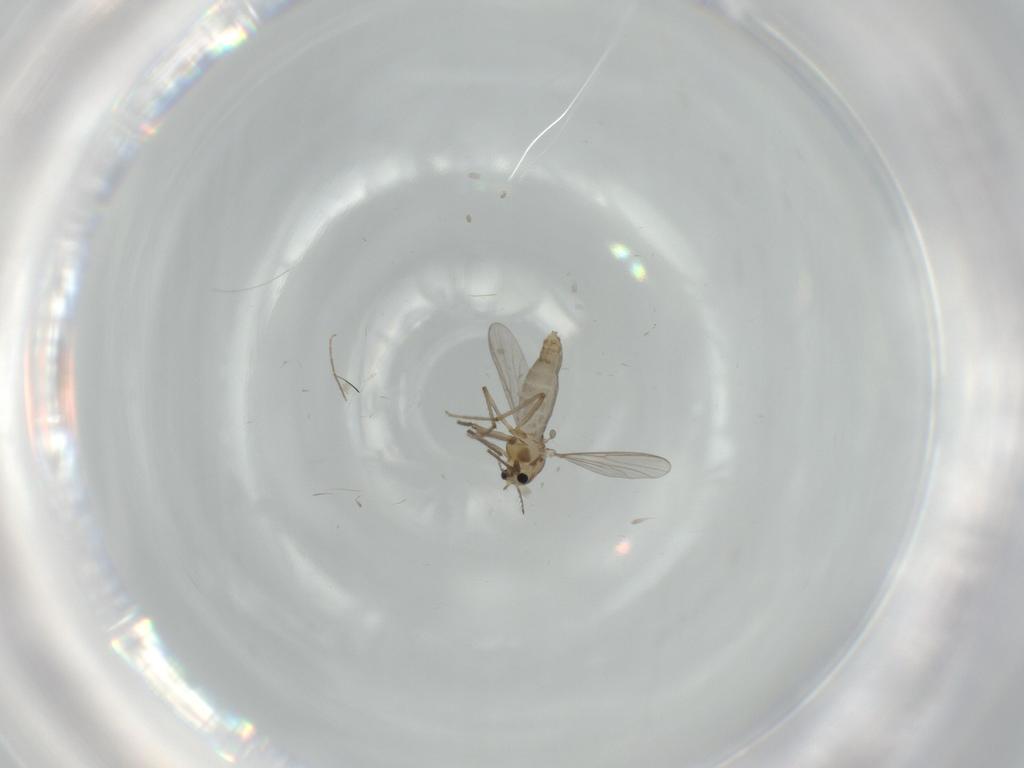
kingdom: Animalia
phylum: Arthropoda
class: Insecta
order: Diptera
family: Chironomidae
